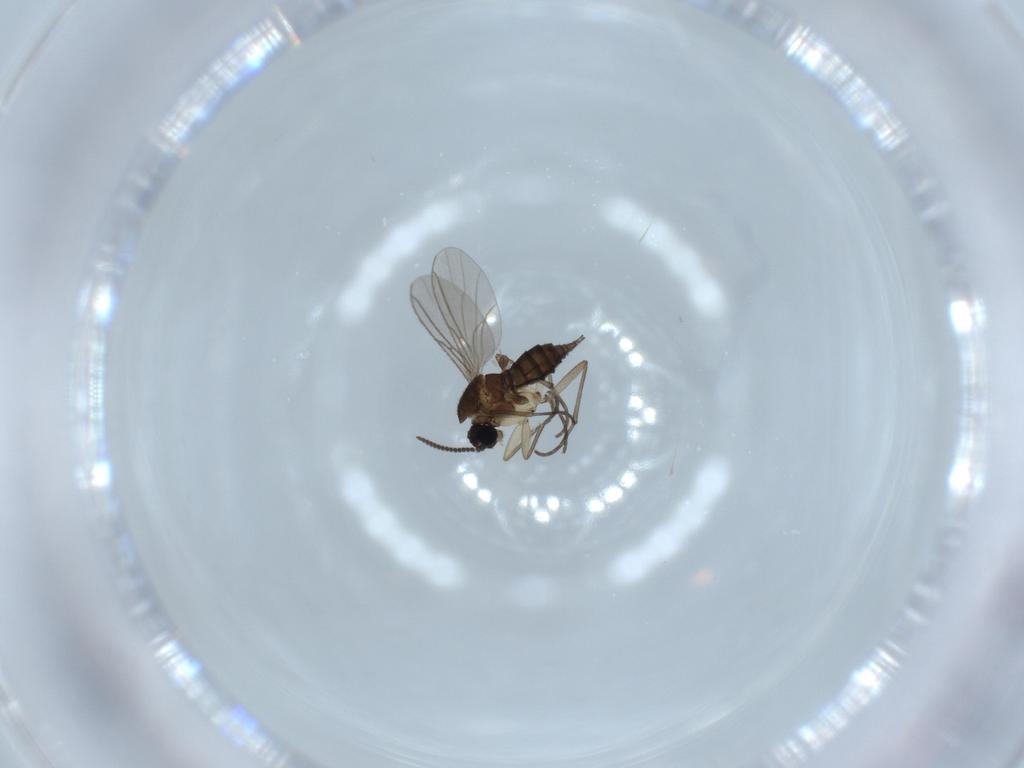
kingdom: Animalia
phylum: Arthropoda
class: Insecta
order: Diptera
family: Sciaridae
